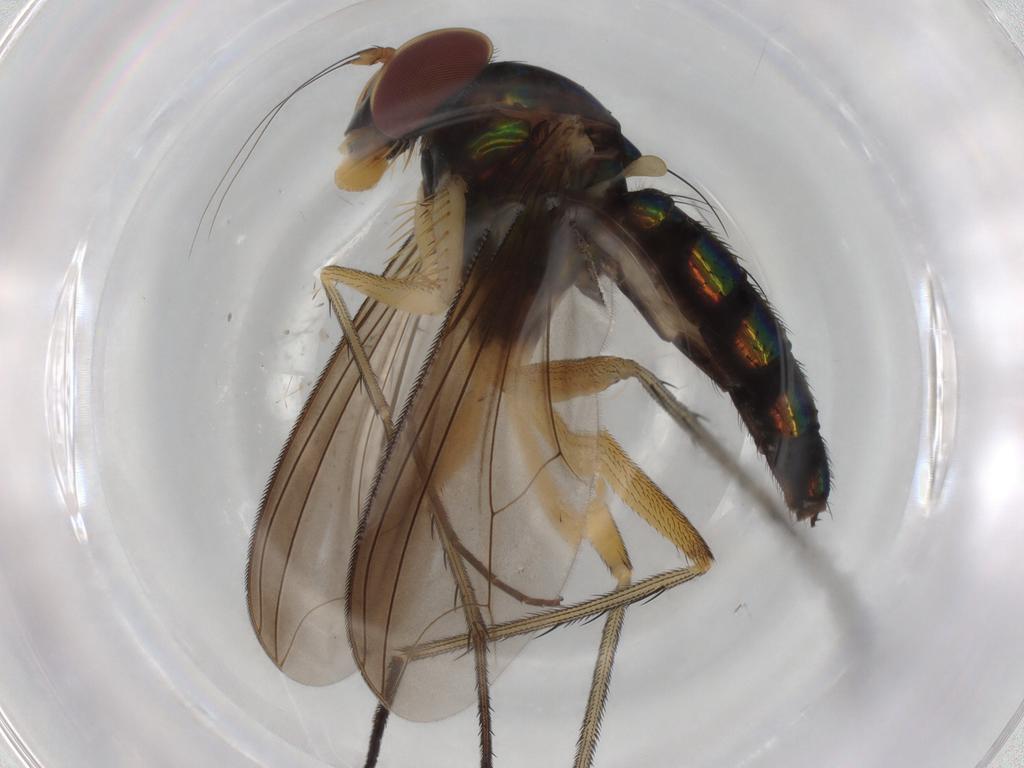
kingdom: Animalia
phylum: Arthropoda
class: Insecta
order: Diptera
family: Dolichopodidae
